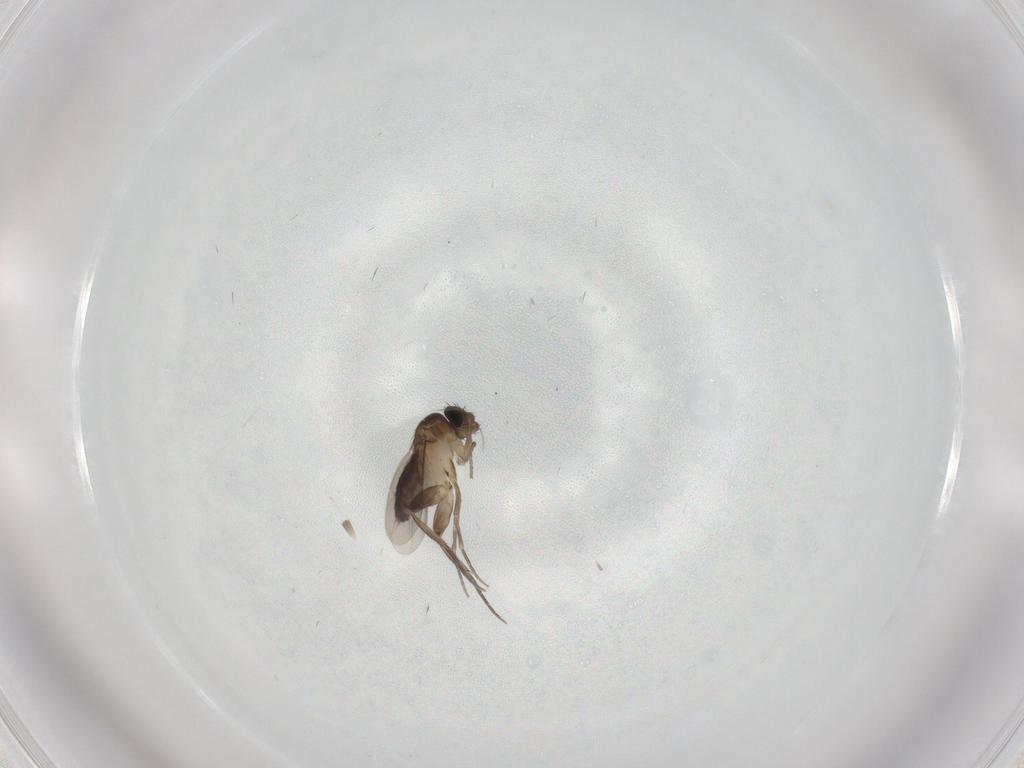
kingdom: Animalia
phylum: Arthropoda
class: Insecta
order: Diptera
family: Phoridae
